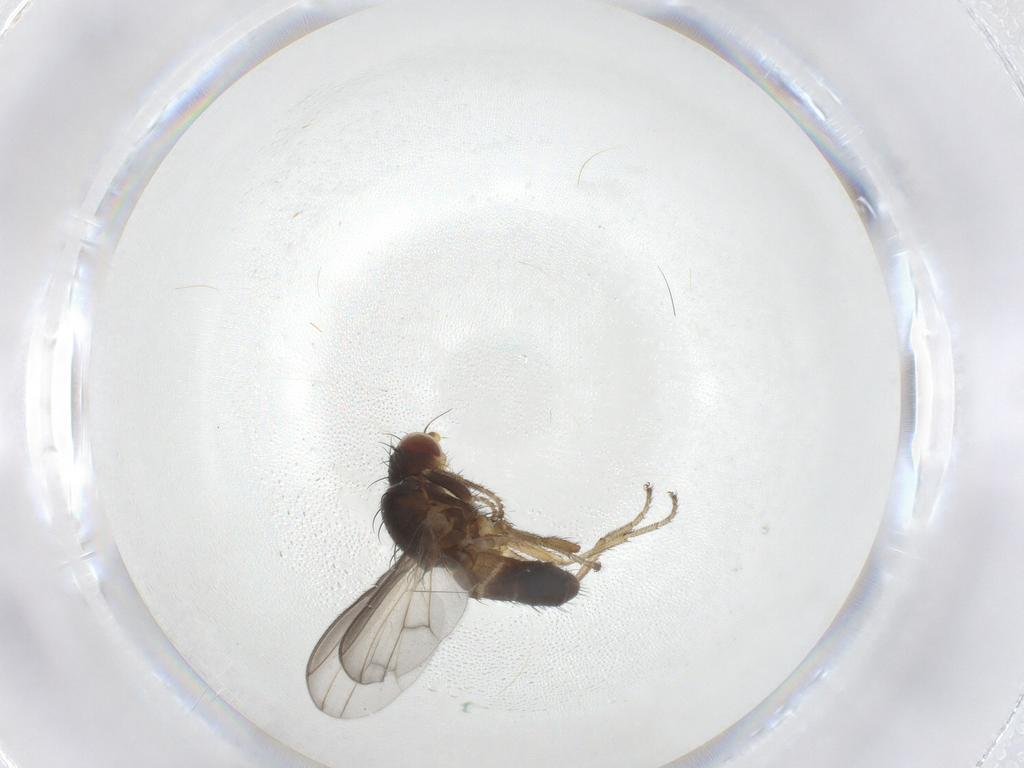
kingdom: Animalia
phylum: Arthropoda
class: Insecta
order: Diptera
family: Heleomyzidae
